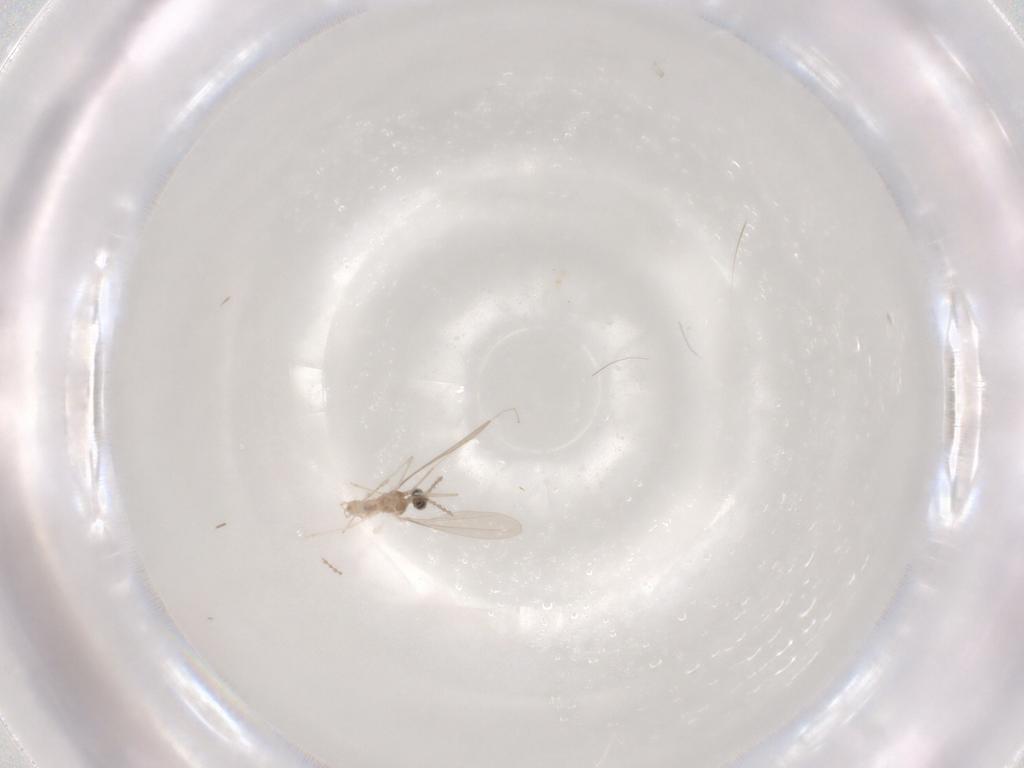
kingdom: Animalia
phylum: Arthropoda
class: Insecta
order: Diptera
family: Cecidomyiidae
